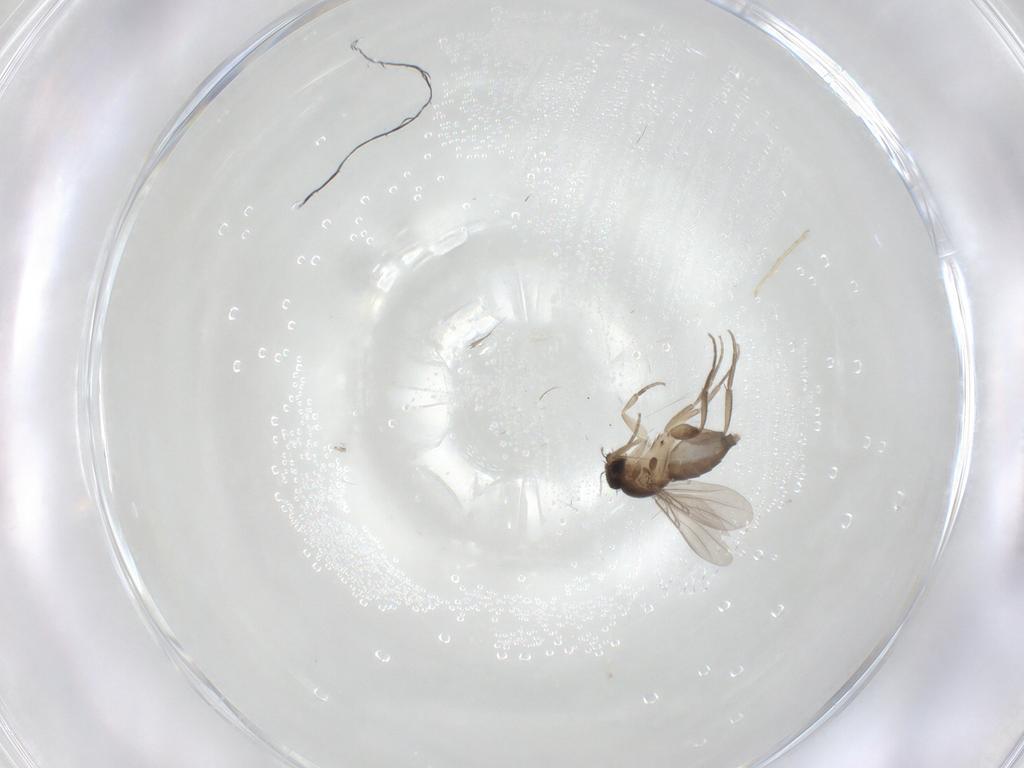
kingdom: Animalia
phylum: Arthropoda
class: Insecta
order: Diptera
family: Phoridae
